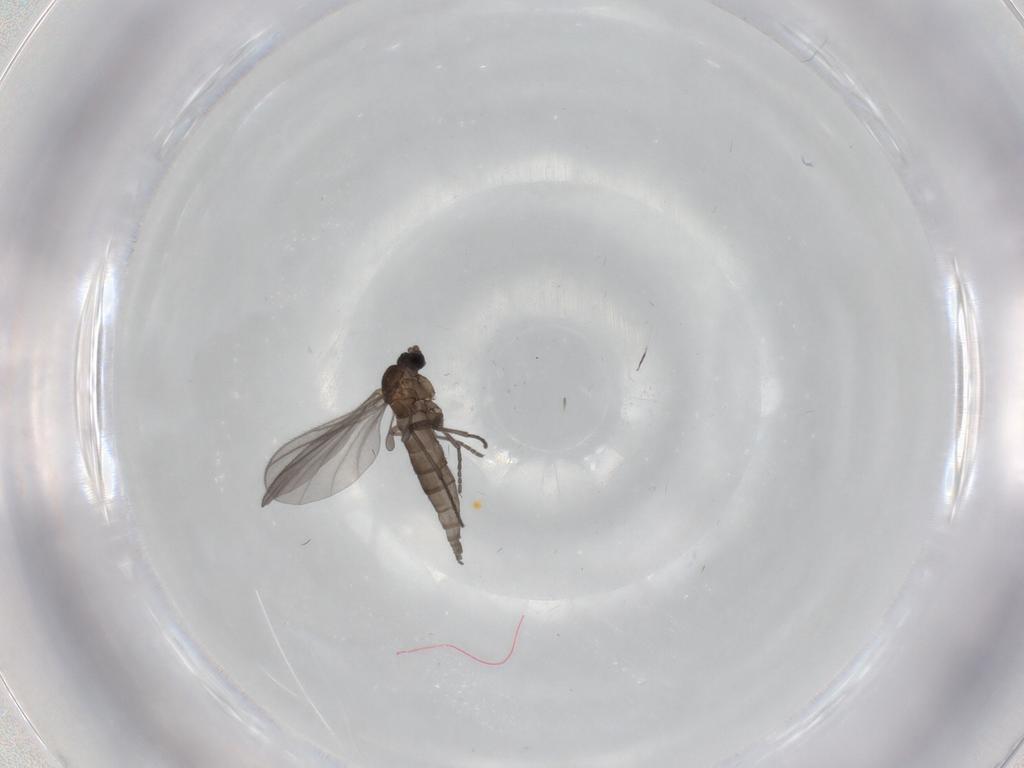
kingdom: Animalia
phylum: Arthropoda
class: Insecta
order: Diptera
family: Sciaridae
